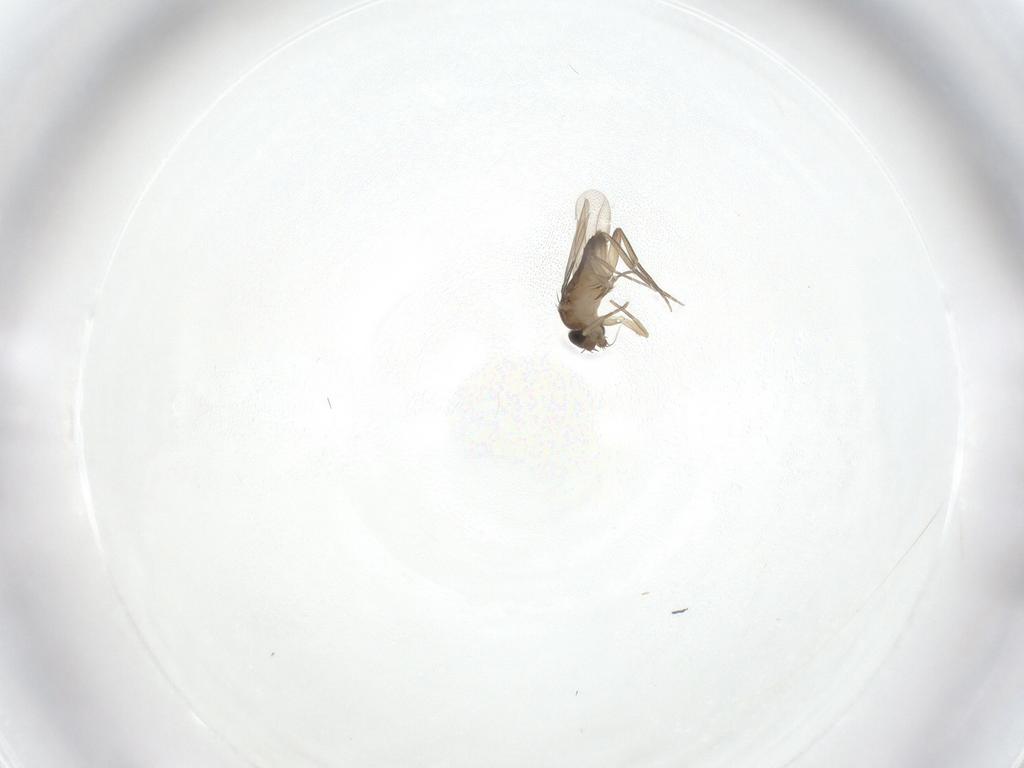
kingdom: Animalia
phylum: Arthropoda
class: Insecta
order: Diptera
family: Phoridae
